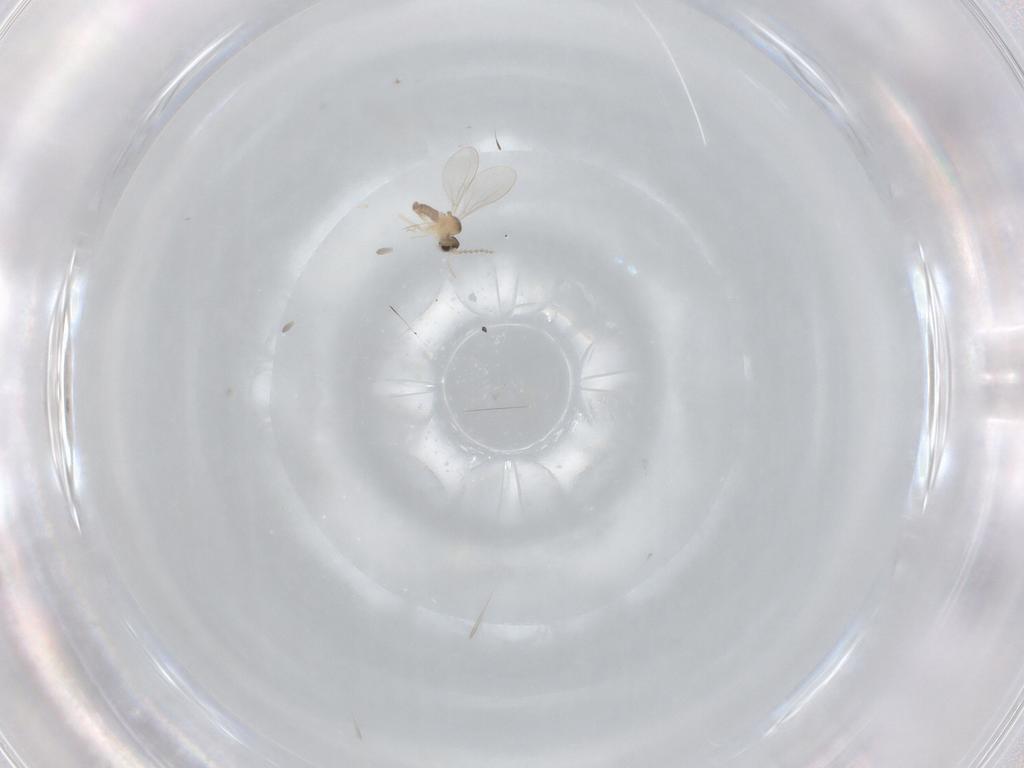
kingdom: Animalia
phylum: Arthropoda
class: Insecta
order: Diptera
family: Cecidomyiidae
